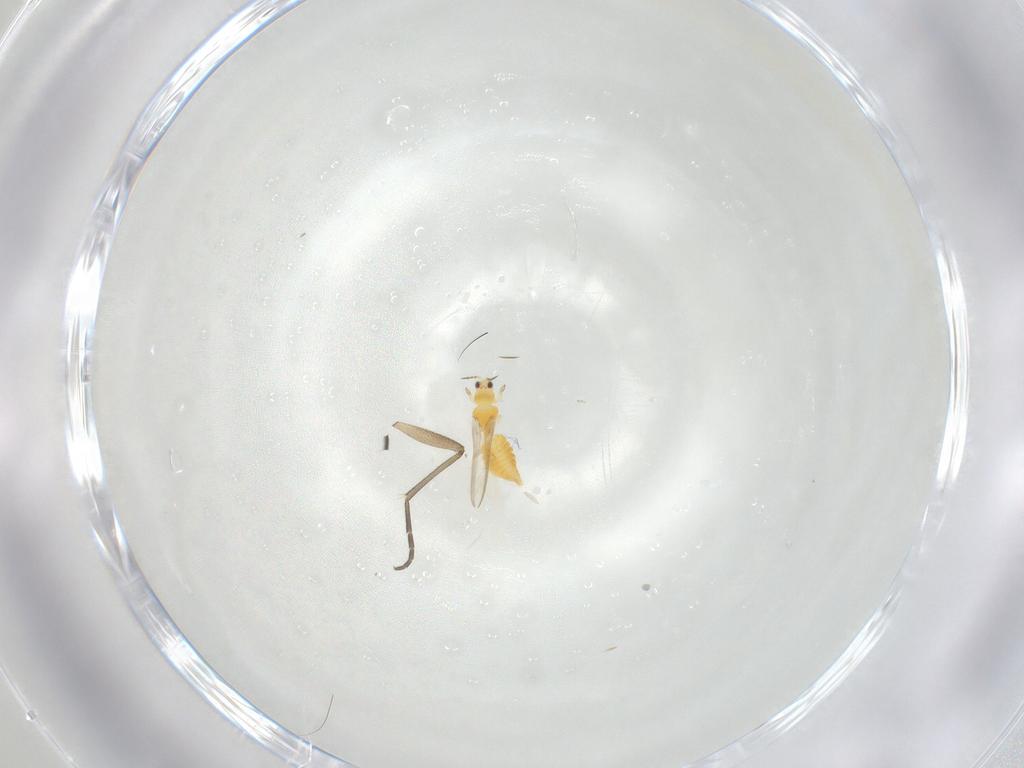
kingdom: Animalia
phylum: Arthropoda
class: Insecta
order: Thysanoptera
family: Thripidae
